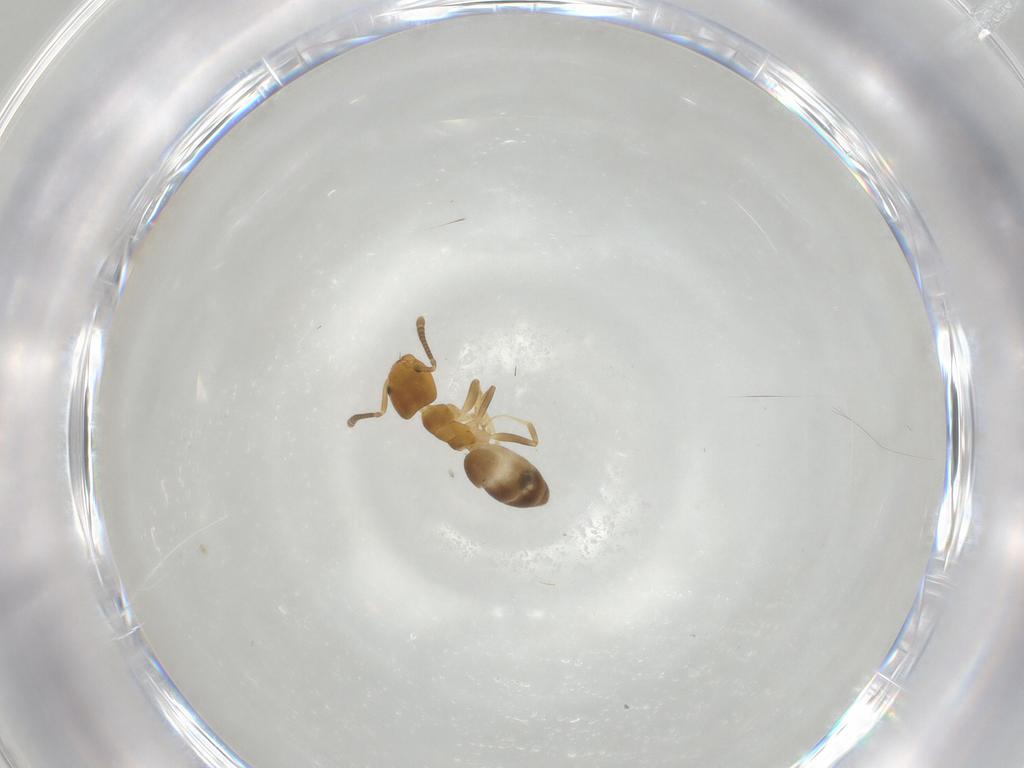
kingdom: Animalia
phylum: Arthropoda
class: Insecta
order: Hymenoptera
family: Formicidae
